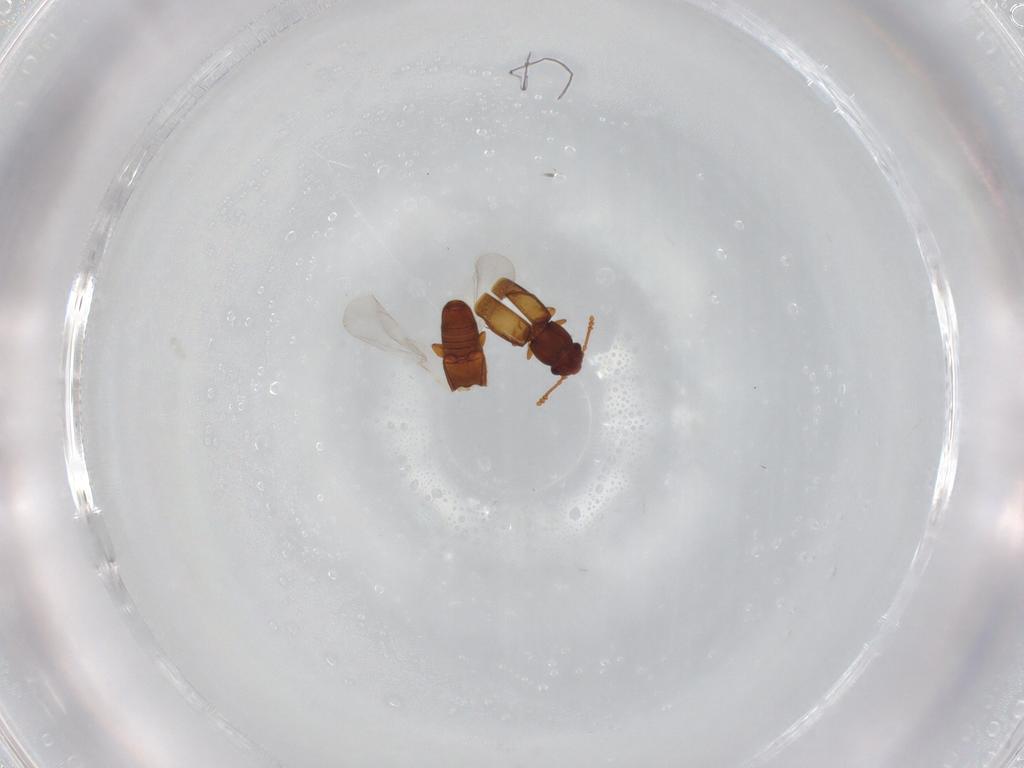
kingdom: Animalia
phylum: Arthropoda
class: Insecta
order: Coleoptera
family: Smicripidae
